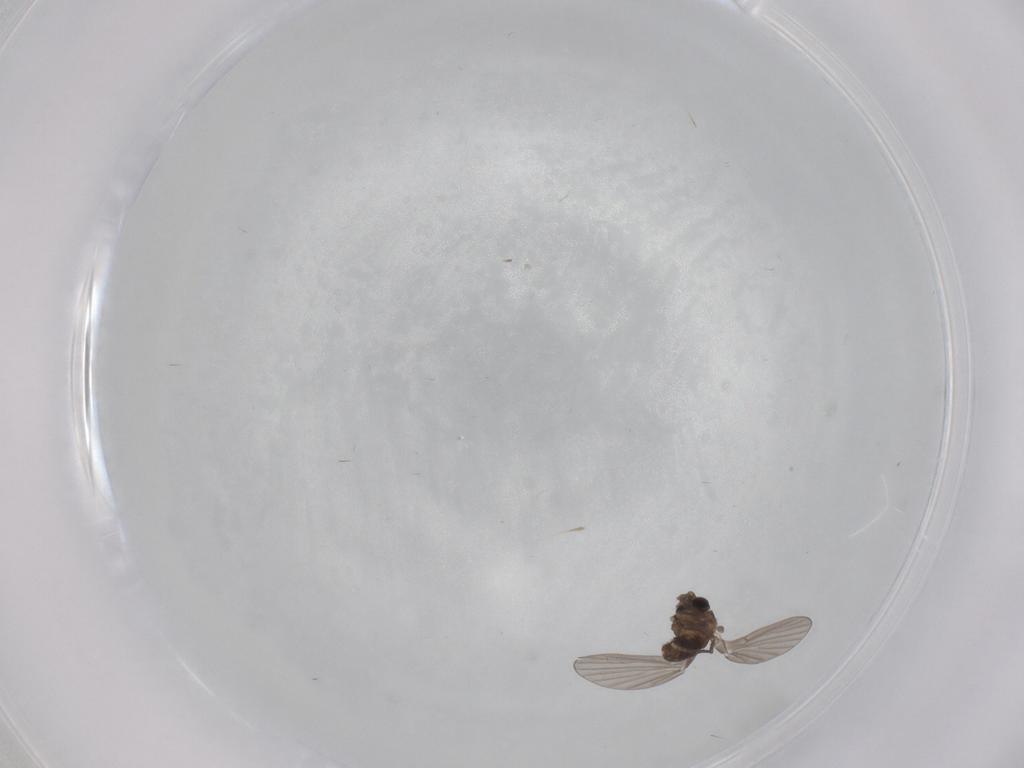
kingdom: Animalia
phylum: Arthropoda
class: Insecta
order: Diptera
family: Psychodidae
